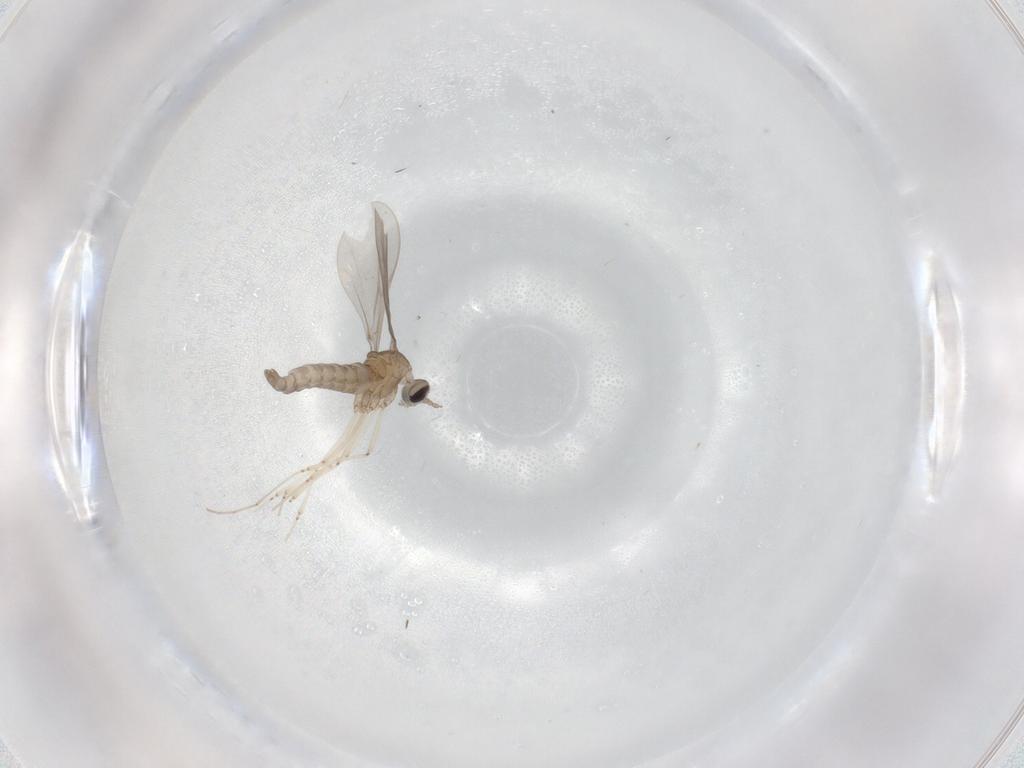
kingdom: Animalia
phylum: Arthropoda
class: Insecta
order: Diptera
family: Cecidomyiidae
